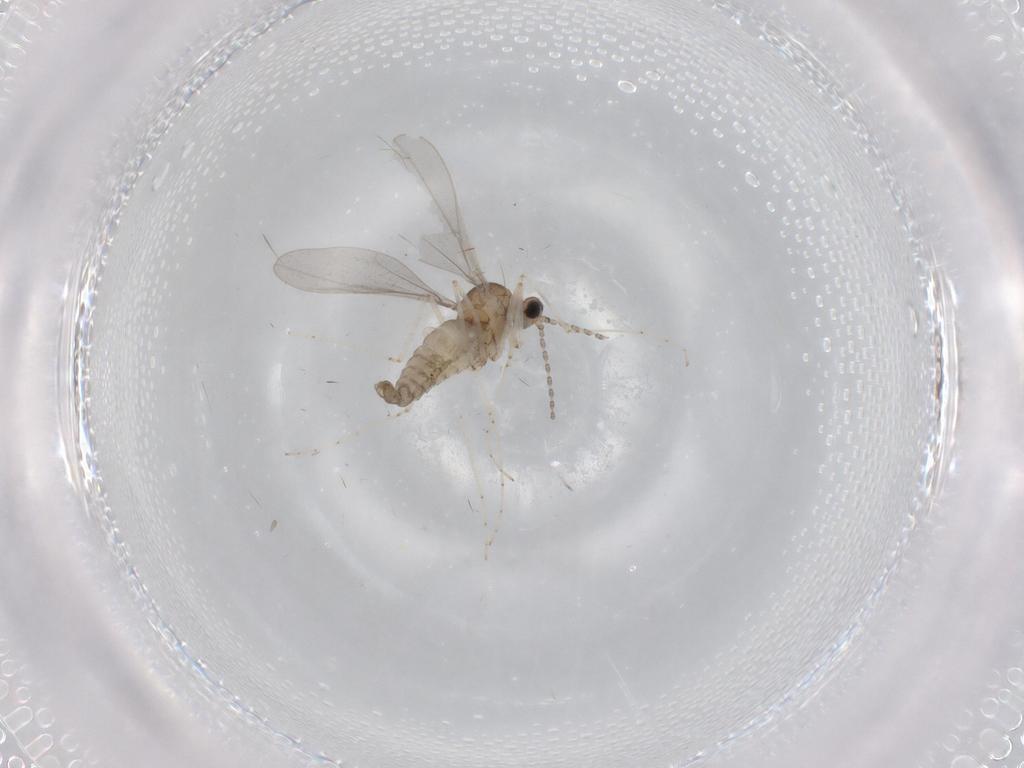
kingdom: Animalia
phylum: Arthropoda
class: Insecta
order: Diptera
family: Cecidomyiidae
